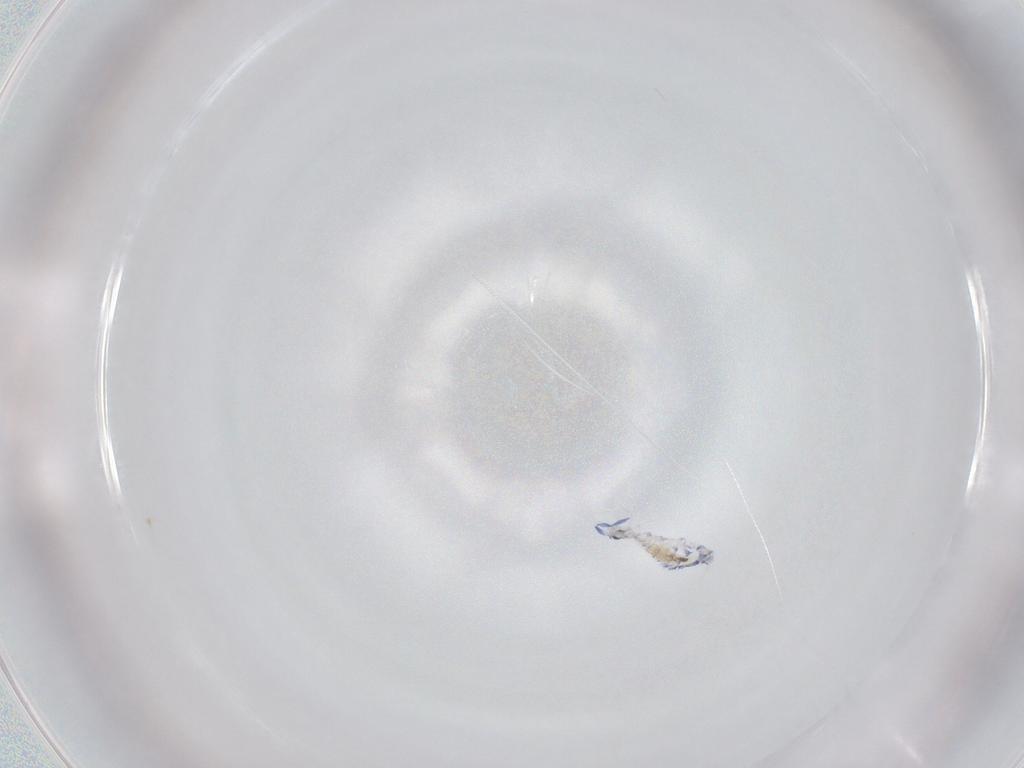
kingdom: Animalia
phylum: Arthropoda
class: Collembola
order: Entomobryomorpha
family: Entomobryidae
